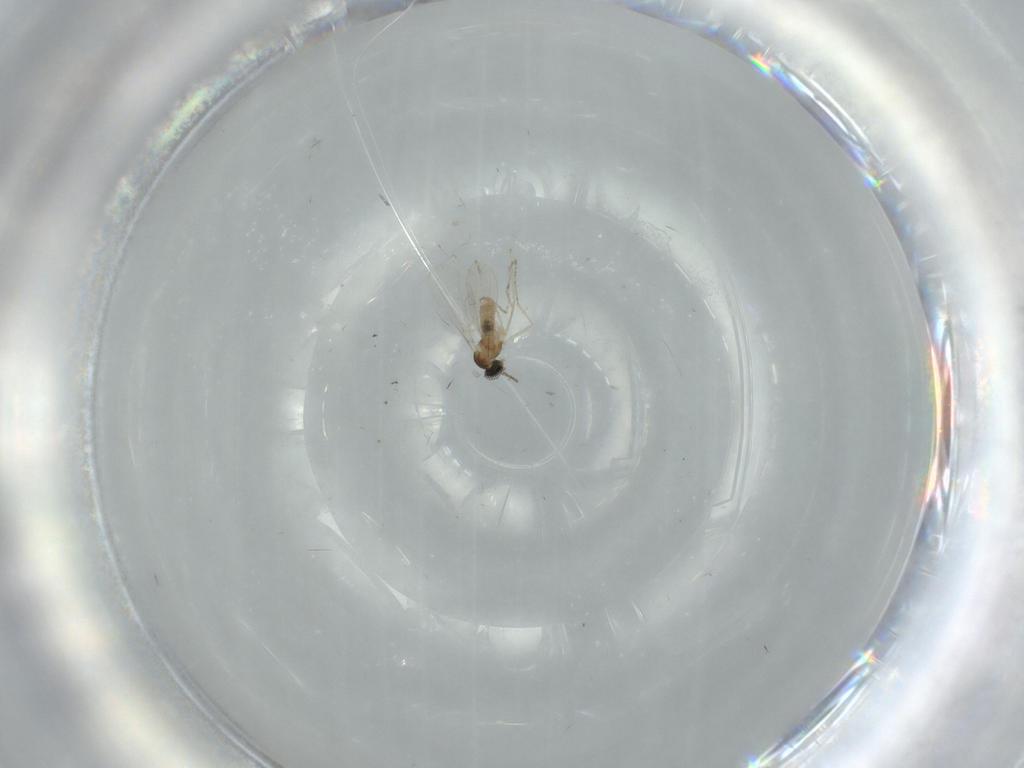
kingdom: Animalia
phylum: Arthropoda
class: Insecta
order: Diptera
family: Cecidomyiidae
